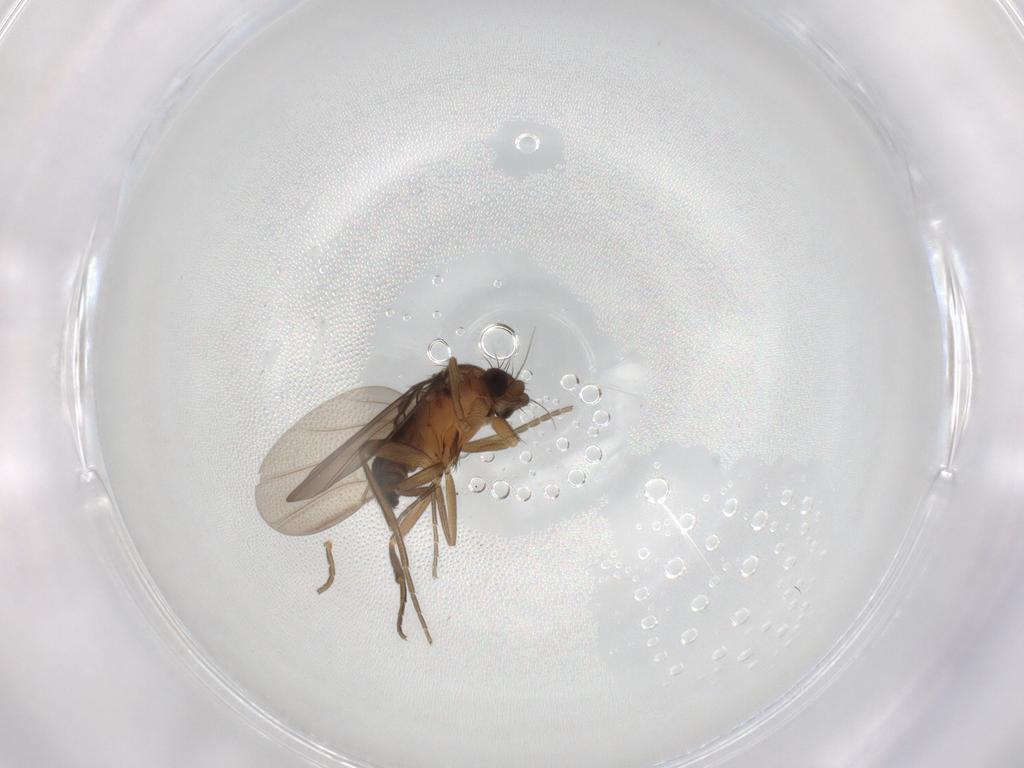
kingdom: Animalia
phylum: Arthropoda
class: Insecta
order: Diptera
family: Phoridae
